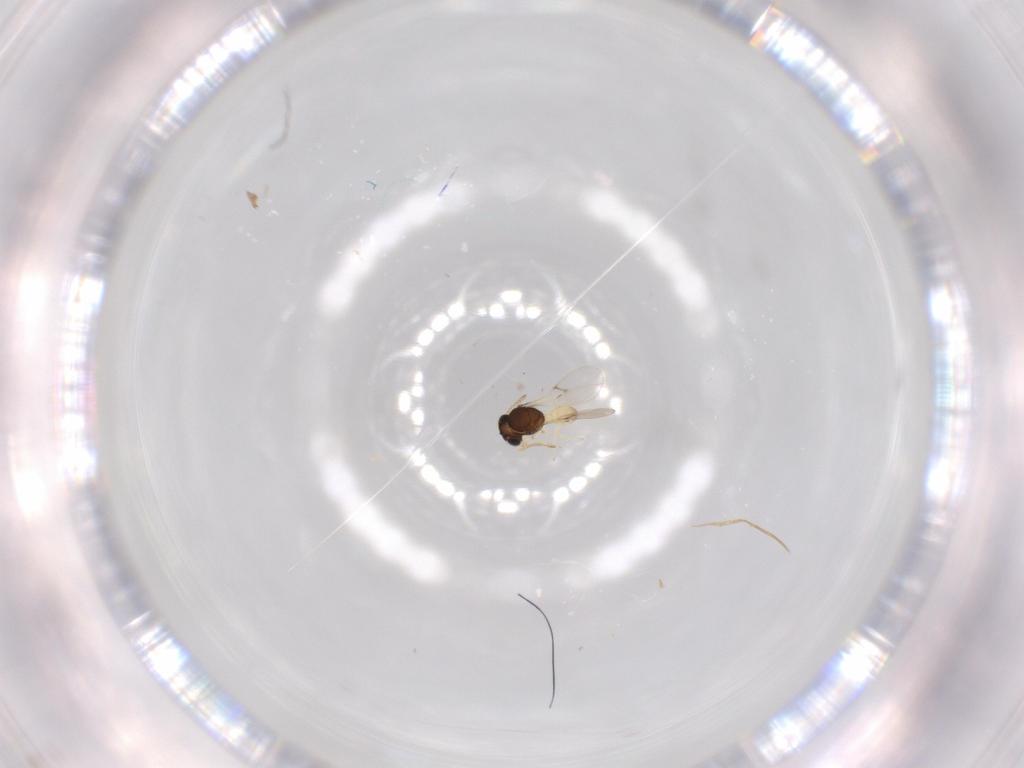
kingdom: Animalia
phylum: Arthropoda
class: Insecta
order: Hymenoptera
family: Scelionidae
